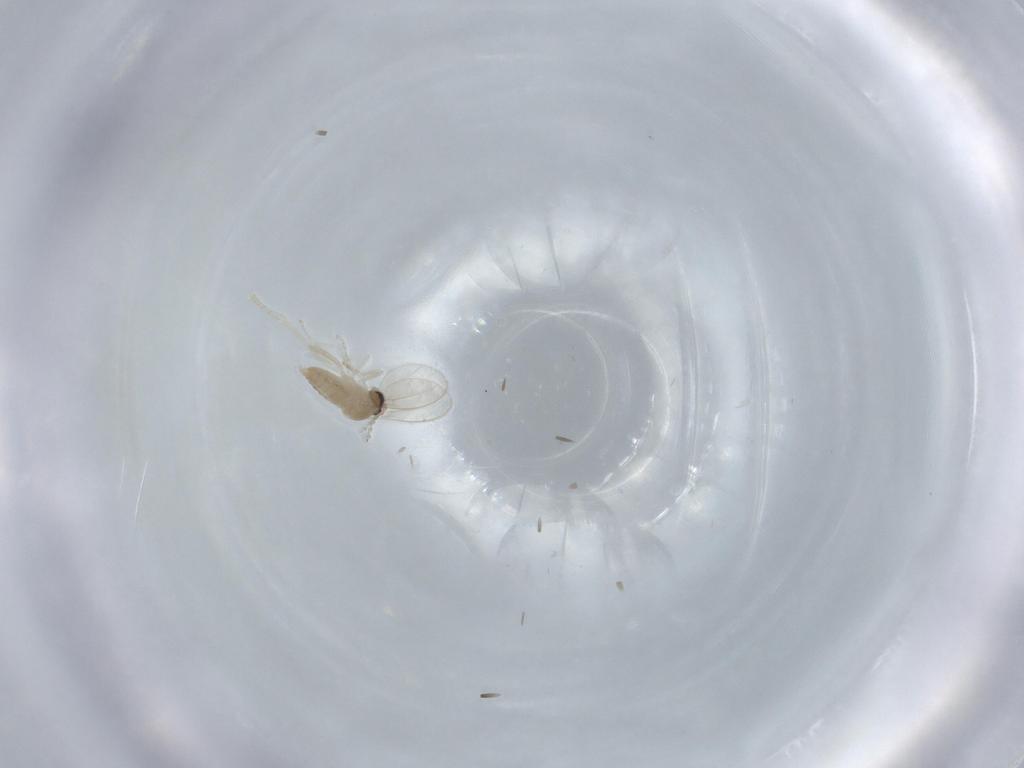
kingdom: Animalia
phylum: Arthropoda
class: Insecta
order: Diptera
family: Cecidomyiidae
